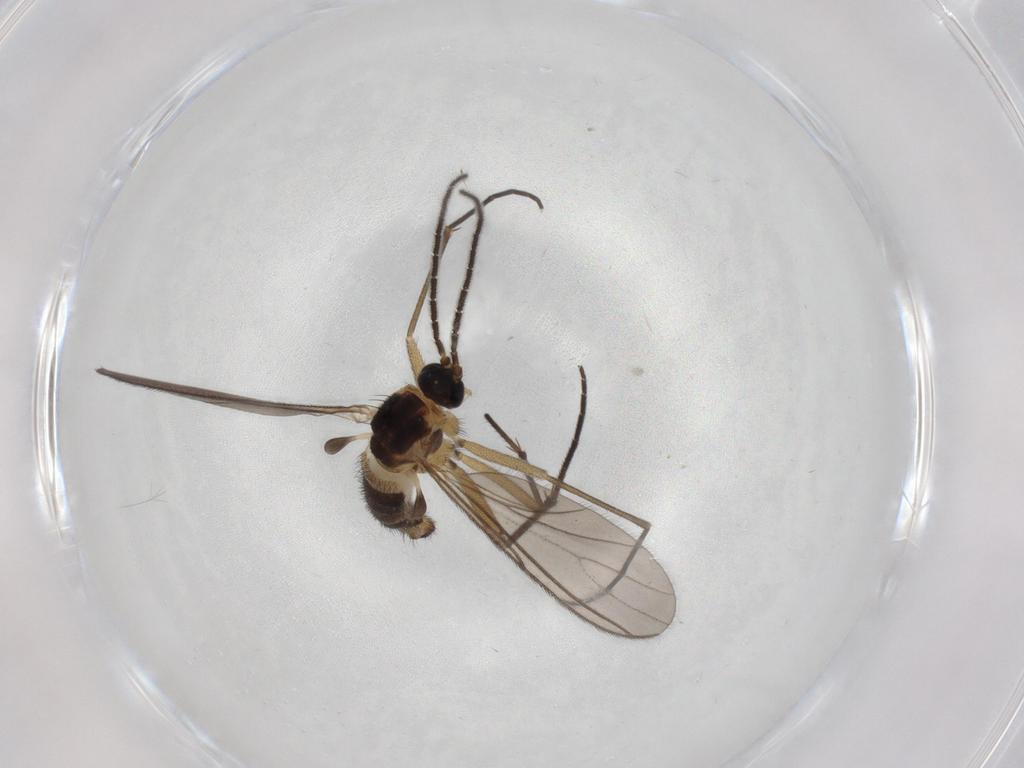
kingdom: Animalia
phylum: Arthropoda
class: Insecta
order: Diptera
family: Sciaridae
